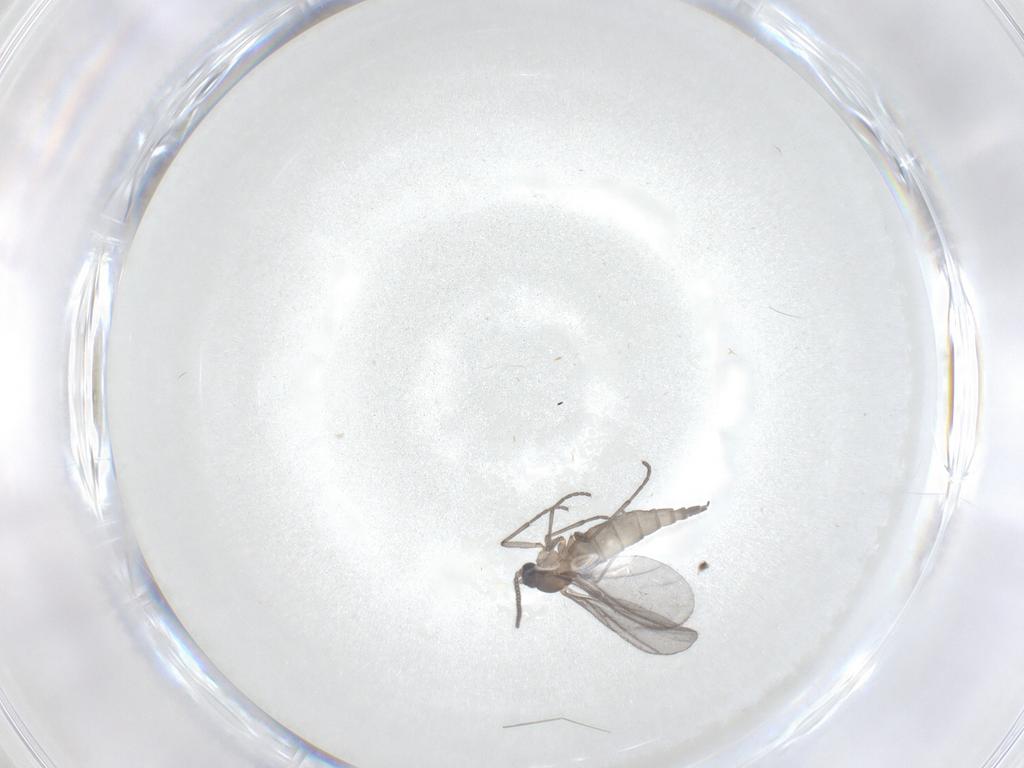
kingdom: Animalia
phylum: Arthropoda
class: Insecta
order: Diptera
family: Sciaridae
